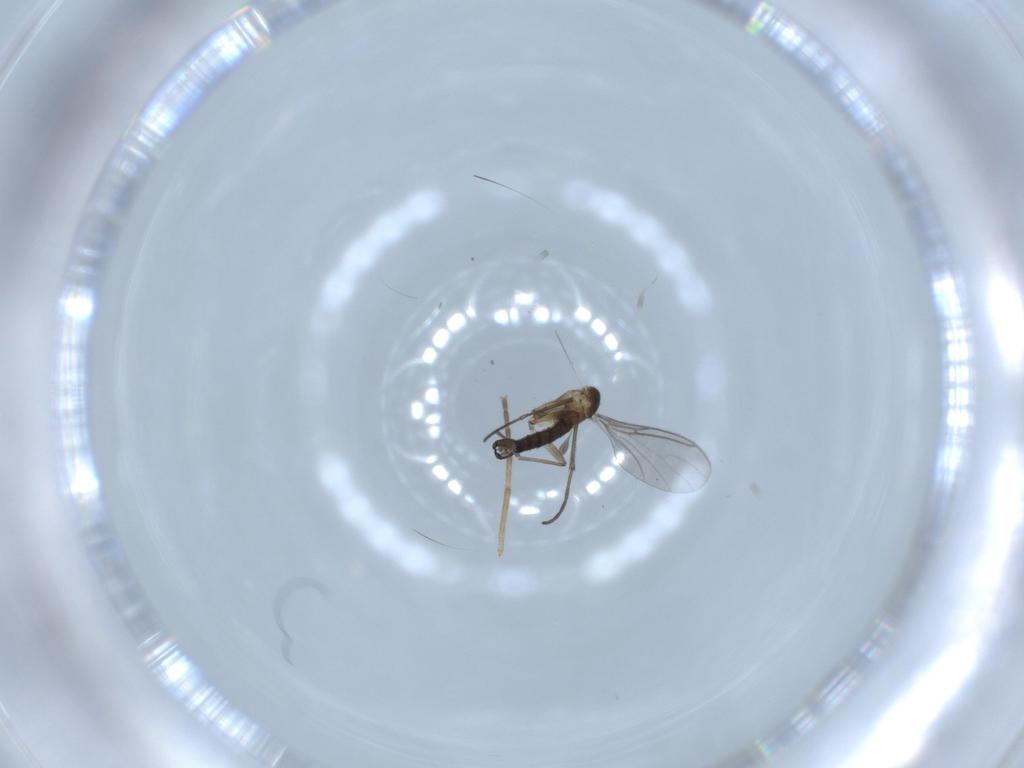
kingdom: Animalia
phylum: Arthropoda
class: Insecta
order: Diptera
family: Sciaridae
